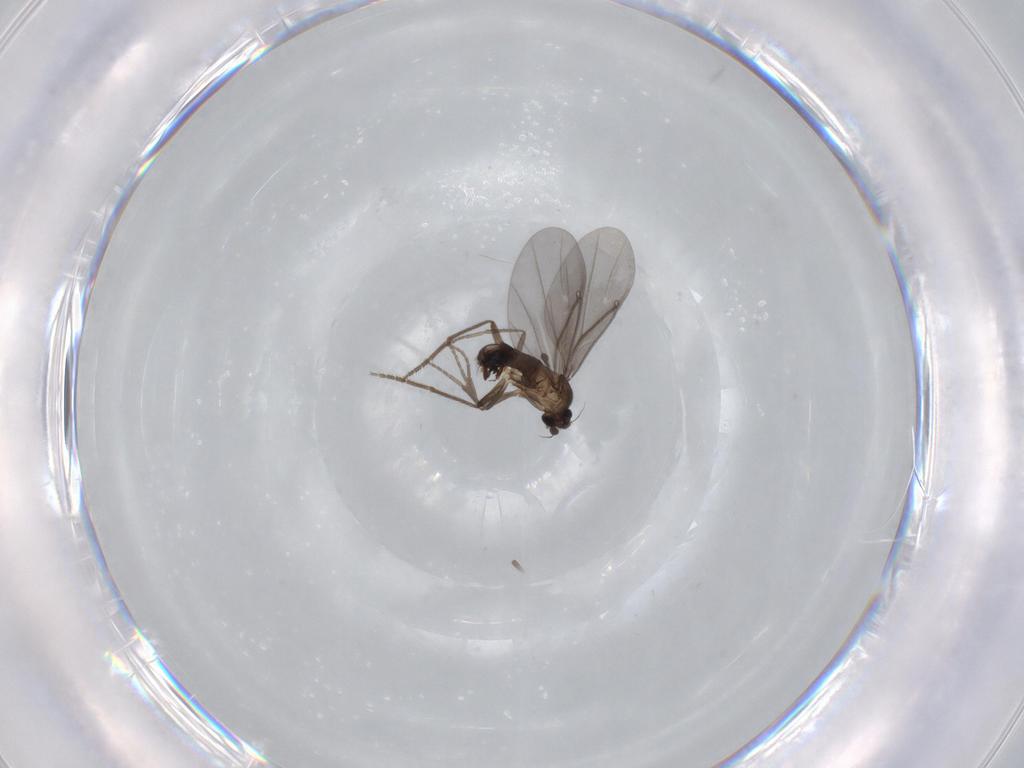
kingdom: Animalia
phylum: Arthropoda
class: Insecta
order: Diptera
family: Phoridae
